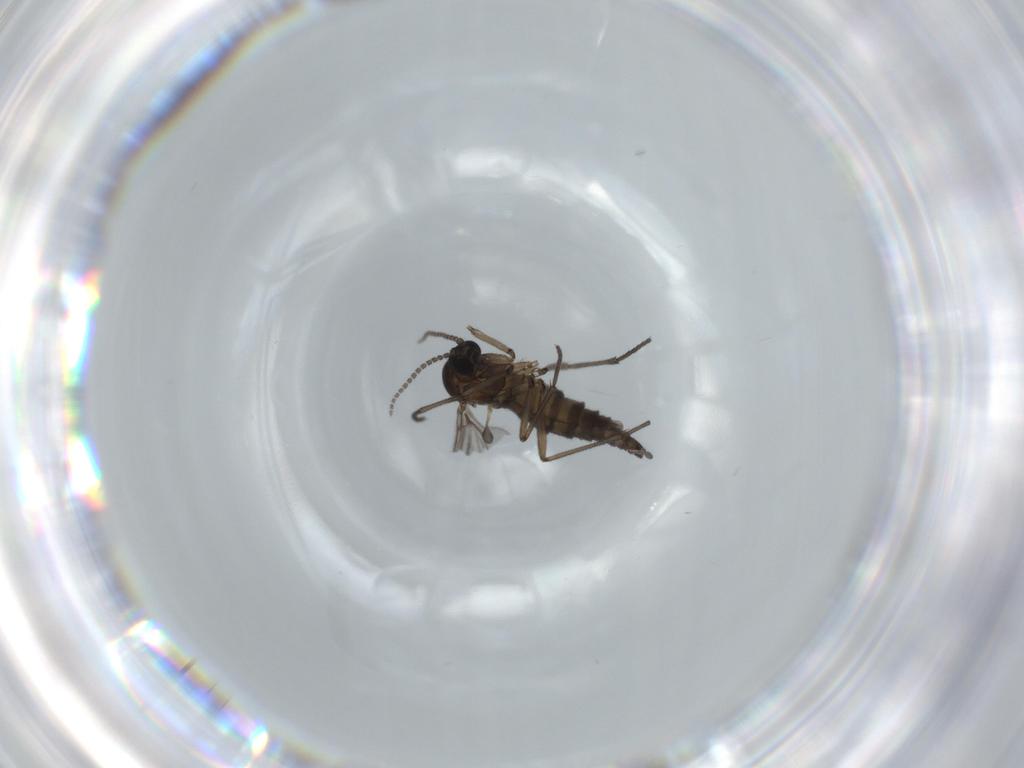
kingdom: Animalia
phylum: Arthropoda
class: Insecta
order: Diptera
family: Sciaridae
